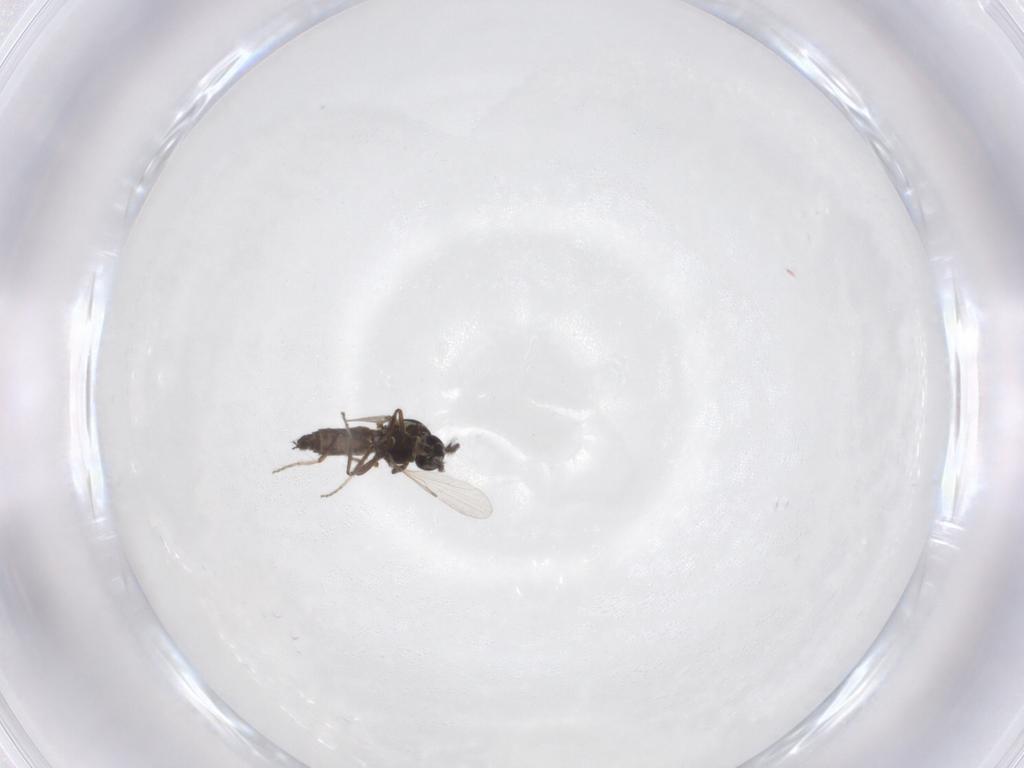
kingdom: Animalia
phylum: Arthropoda
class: Insecta
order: Diptera
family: Ceratopogonidae
